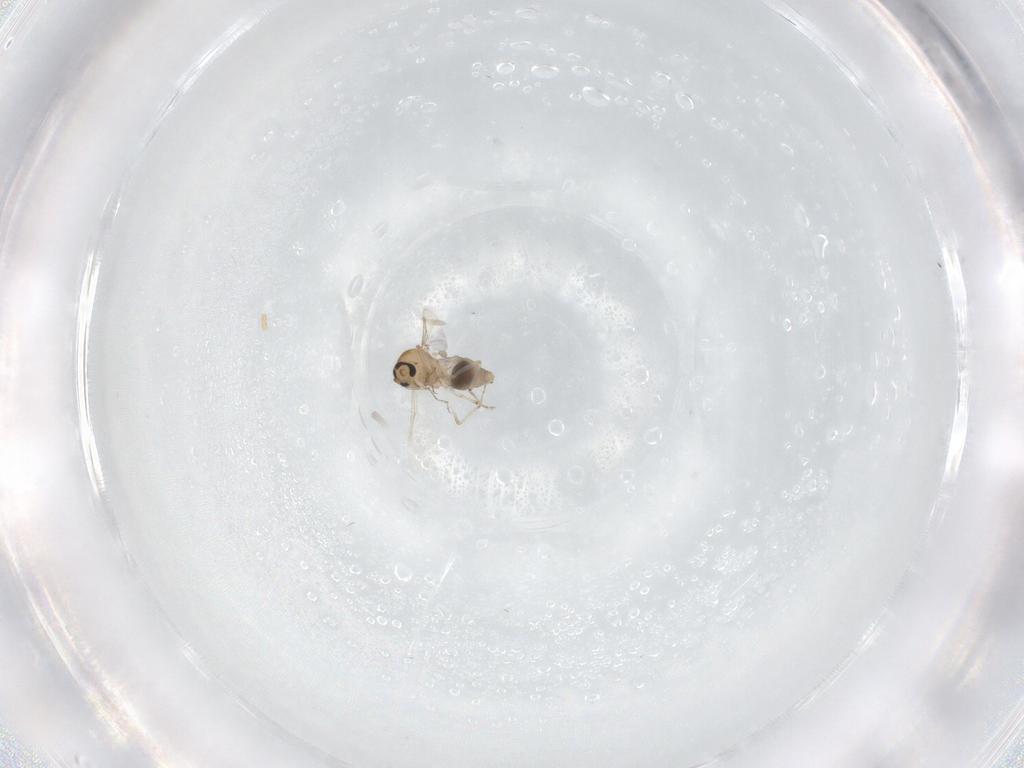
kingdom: Animalia
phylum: Arthropoda
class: Insecta
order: Diptera
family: Ceratopogonidae
